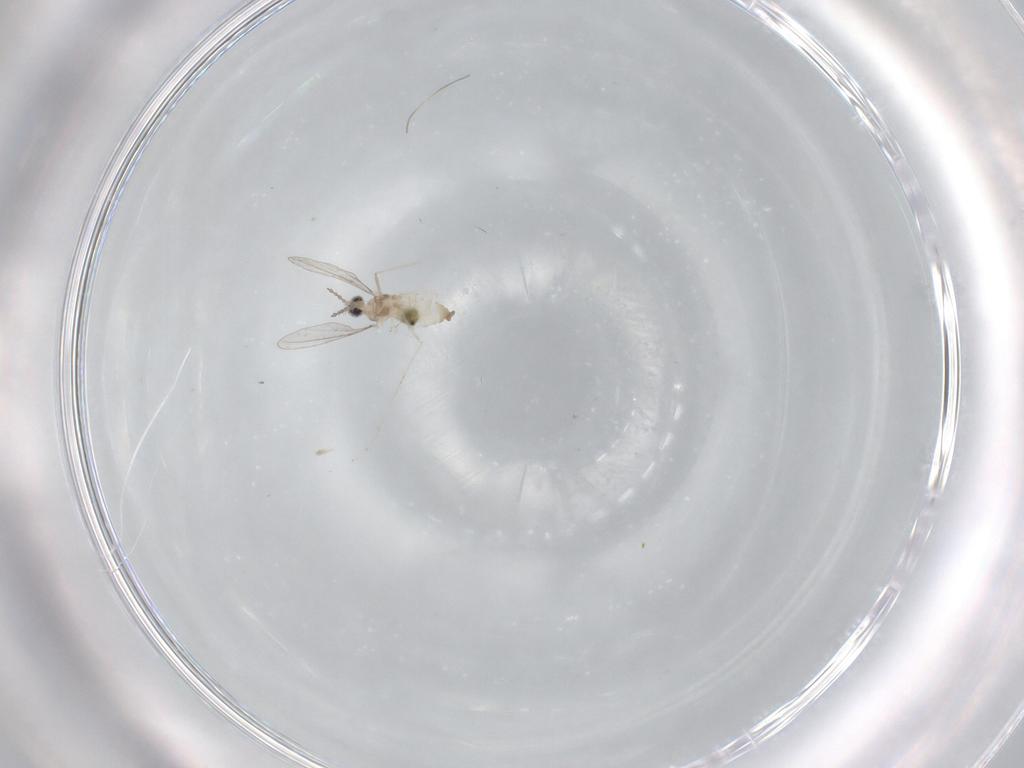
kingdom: Animalia
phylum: Arthropoda
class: Insecta
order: Diptera
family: Cecidomyiidae
